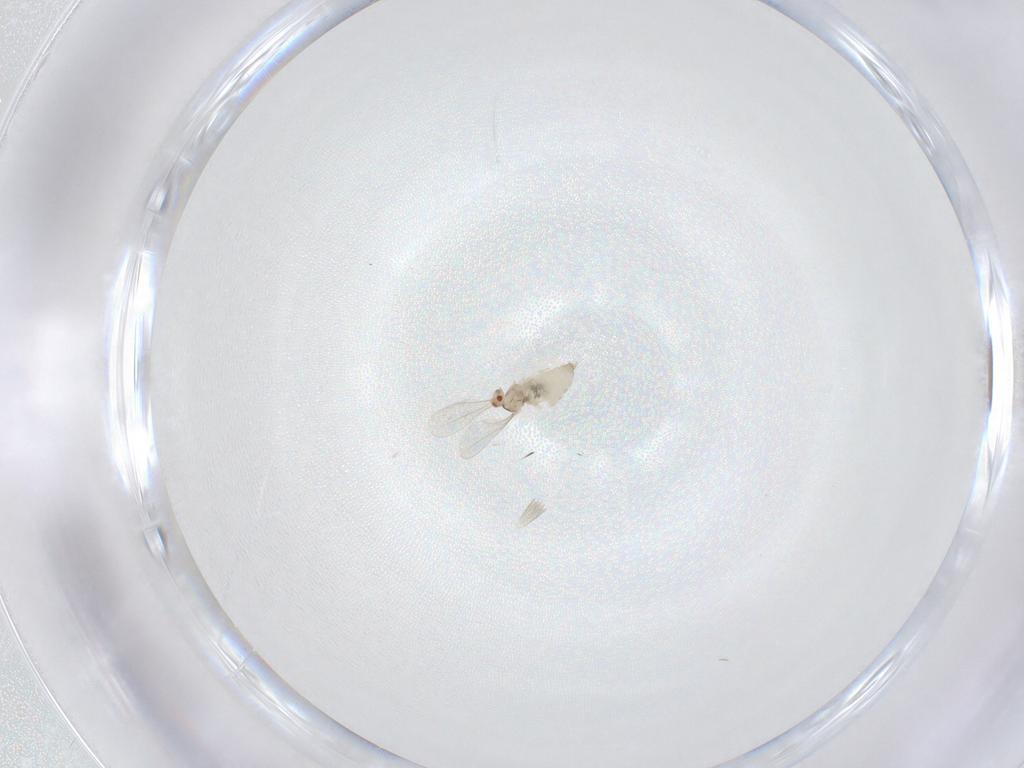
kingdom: Animalia
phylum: Arthropoda
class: Insecta
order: Diptera
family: Cecidomyiidae
